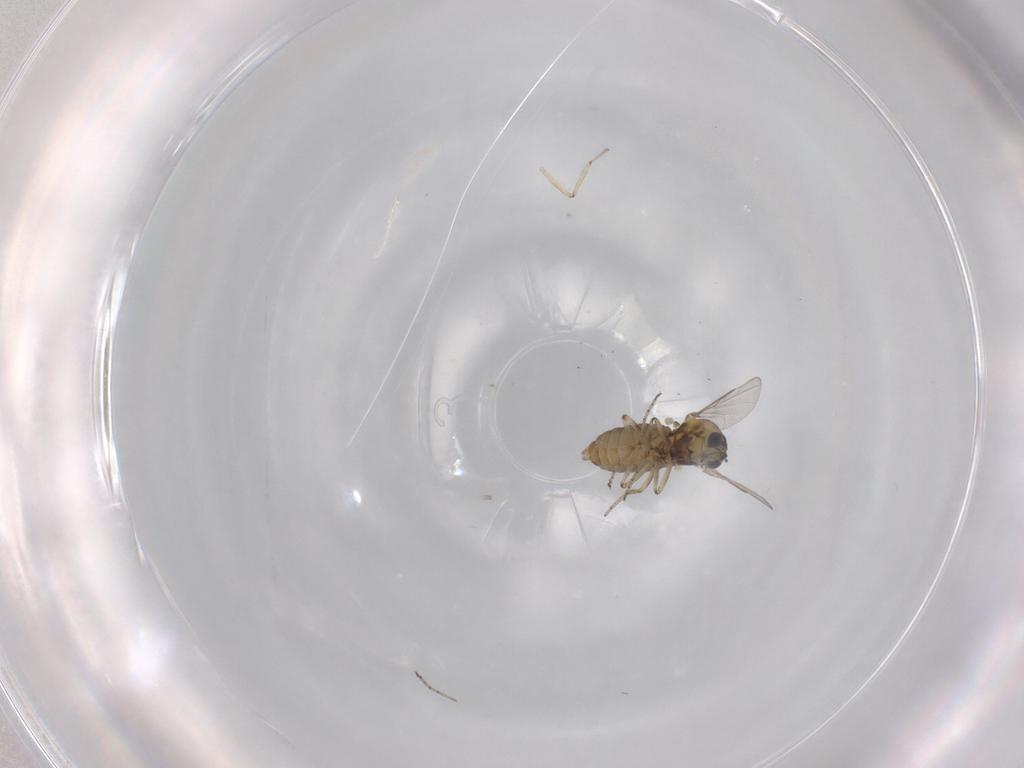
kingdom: Animalia
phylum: Arthropoda
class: Insecta
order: Diptera
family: Ceratopogonidae
